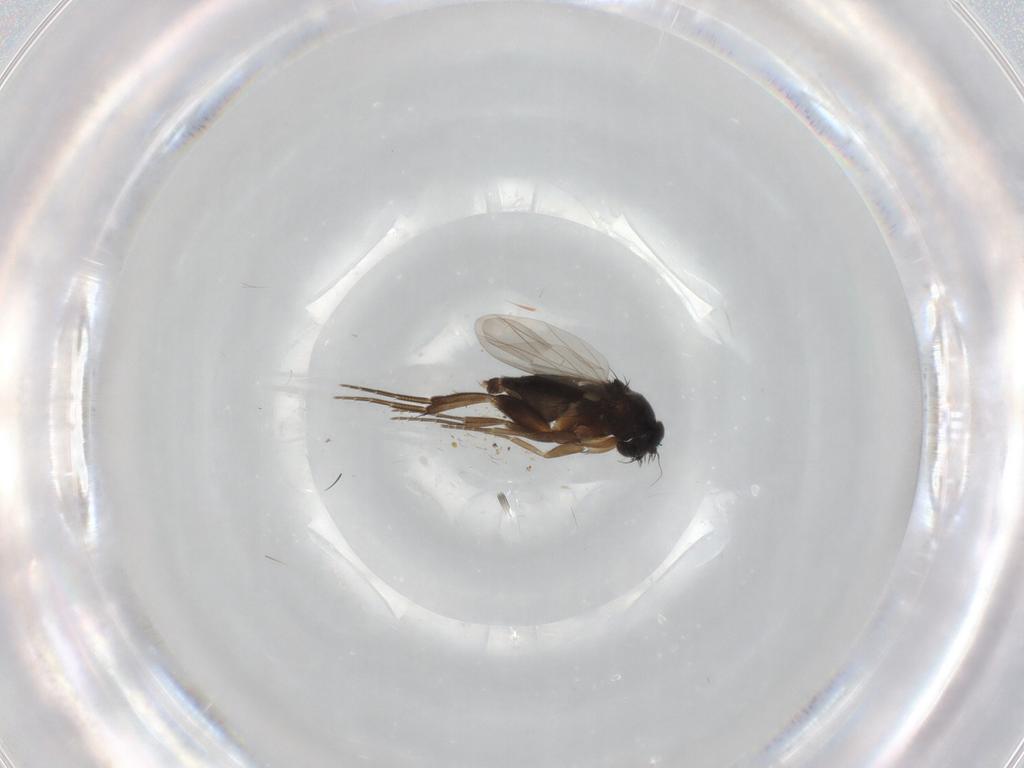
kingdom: Animalia
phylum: Arthropoda
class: Insecta
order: Diptera
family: Phoridae
